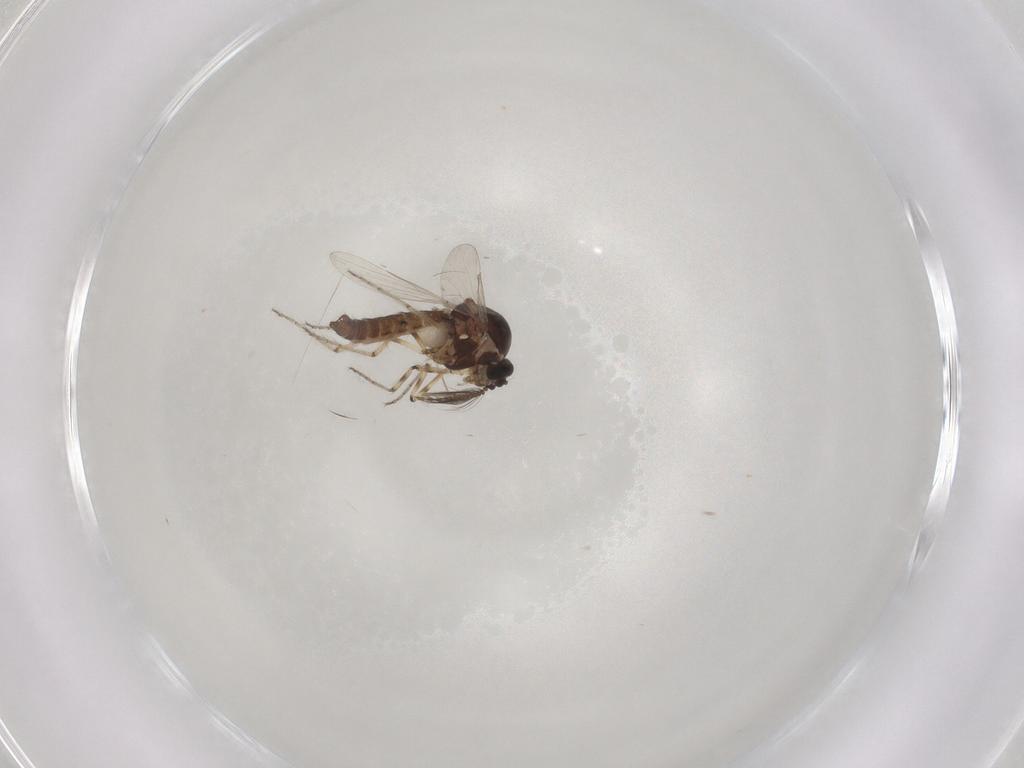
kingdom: Animalia
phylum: Arthropoda
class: Insecta
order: Diptera
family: Ceratopogonidae
